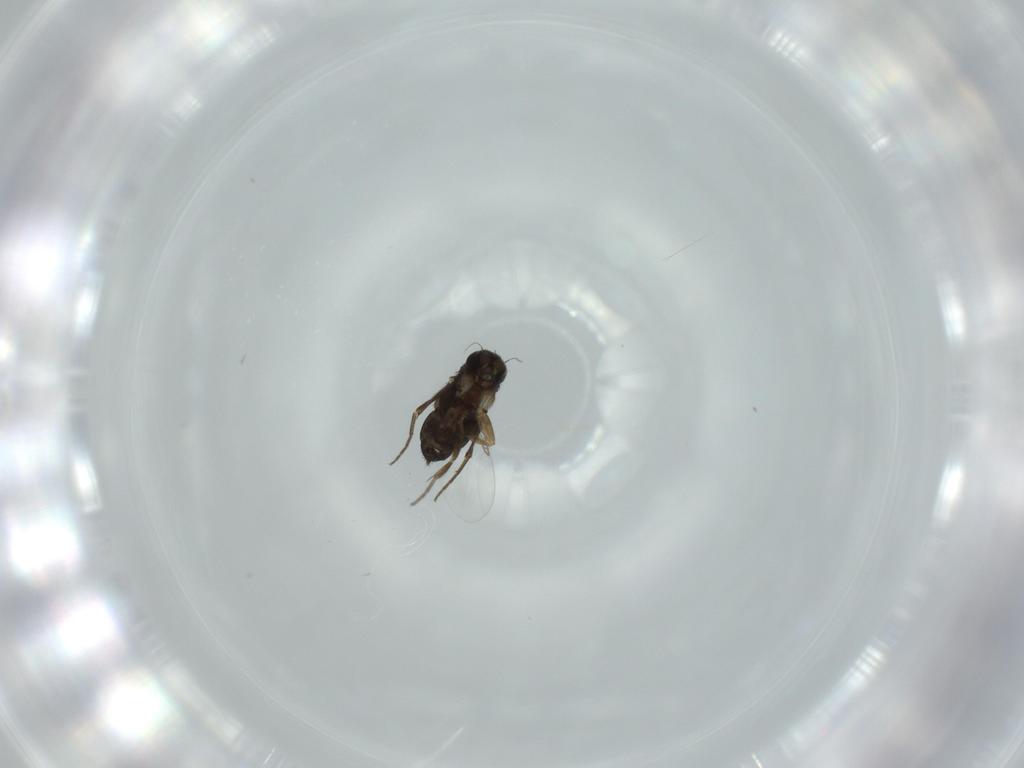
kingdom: Animalia
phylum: Arthropoda
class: Insecta
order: Diptera
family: Phoridae
